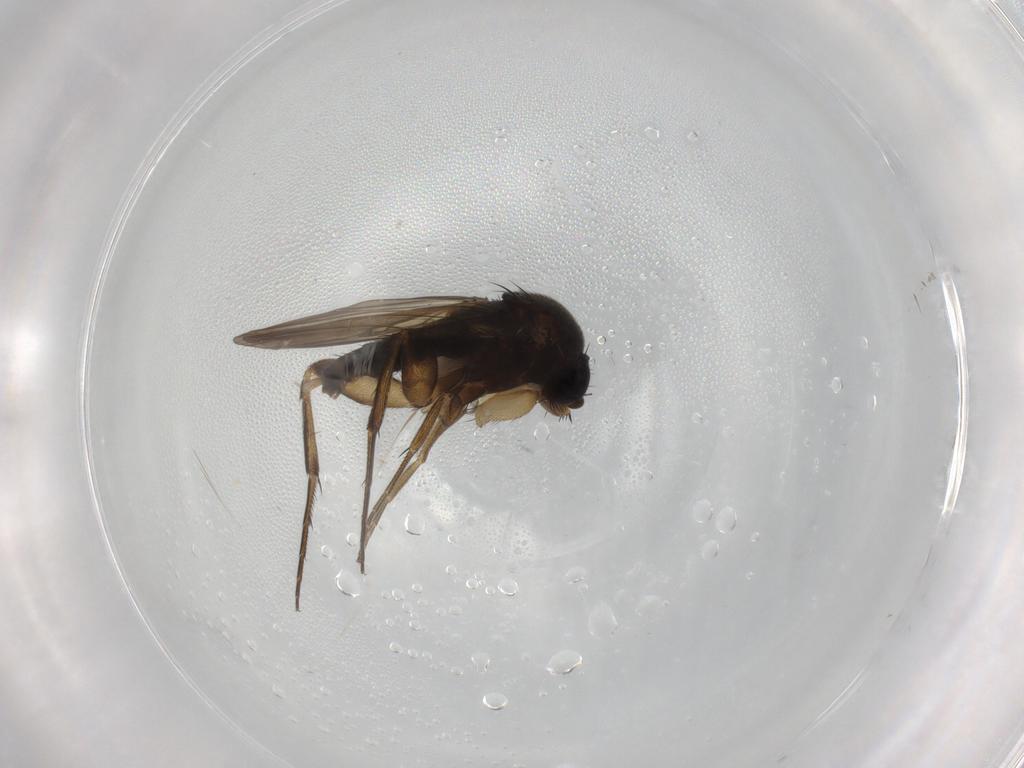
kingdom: Animalia
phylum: Arthropoda
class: Insecta
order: Diptera
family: Phoridae
